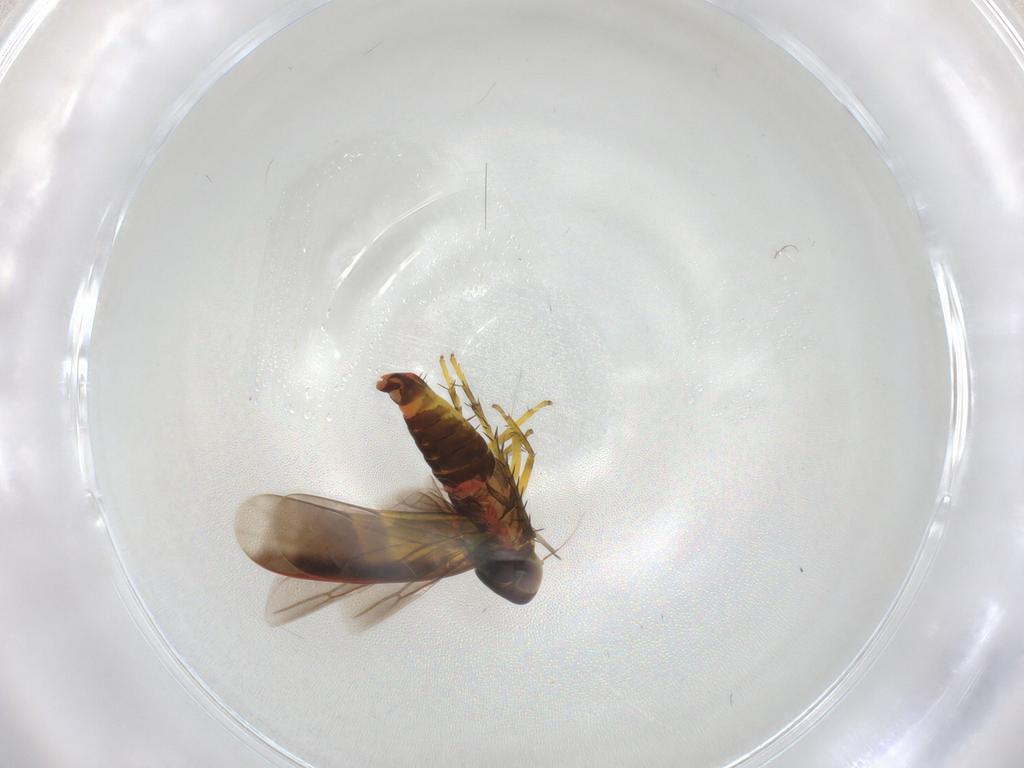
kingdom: Animalia
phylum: Arthropoda
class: Insecta
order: Hemiptera
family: Cicadellidae
